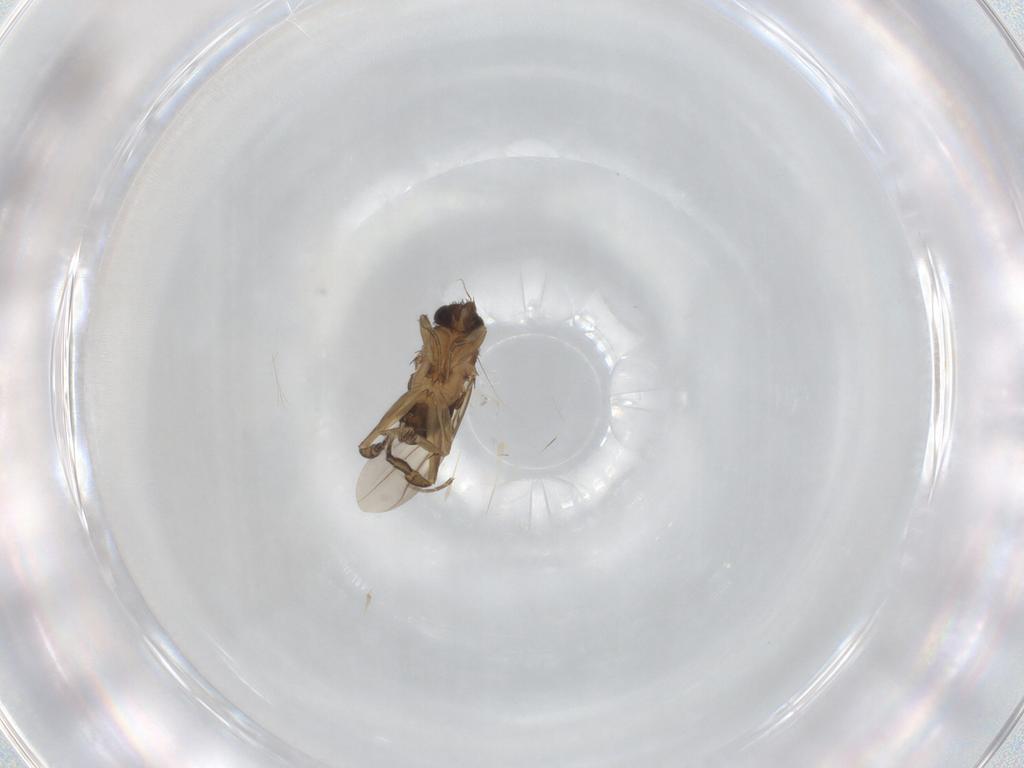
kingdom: Animalia
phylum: Arthropoda
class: Insecta
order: Diptera
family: Phoridae
